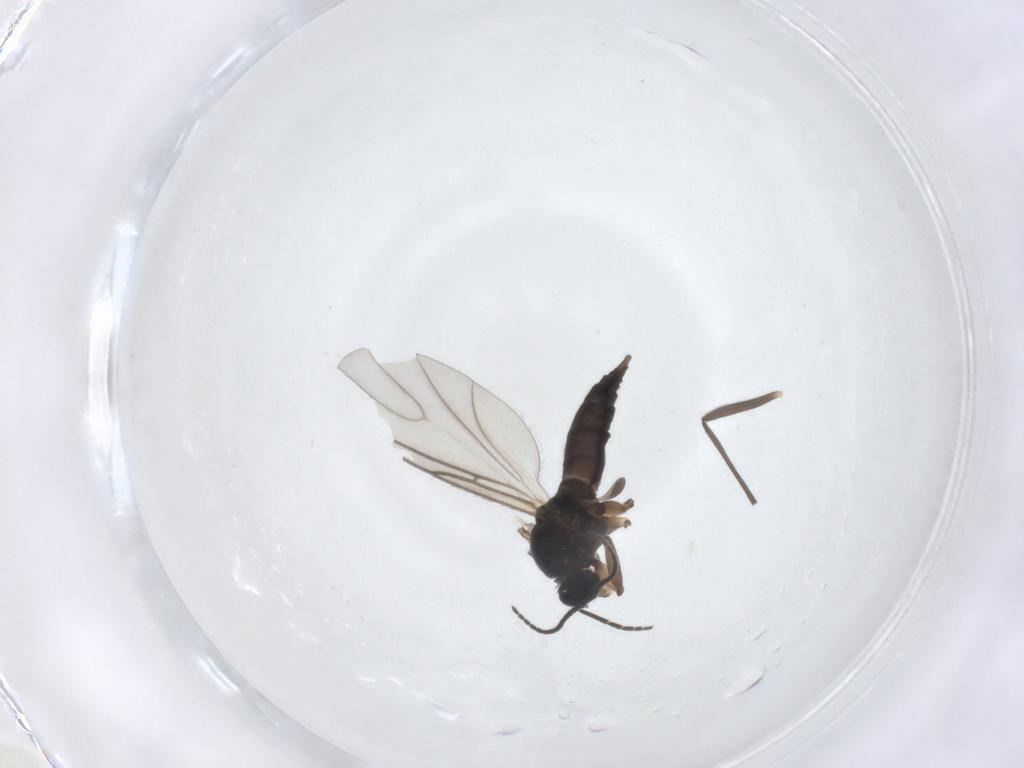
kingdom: Animalia
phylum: Arthropoda
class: Insecta
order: Diptera
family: Sciaridae
